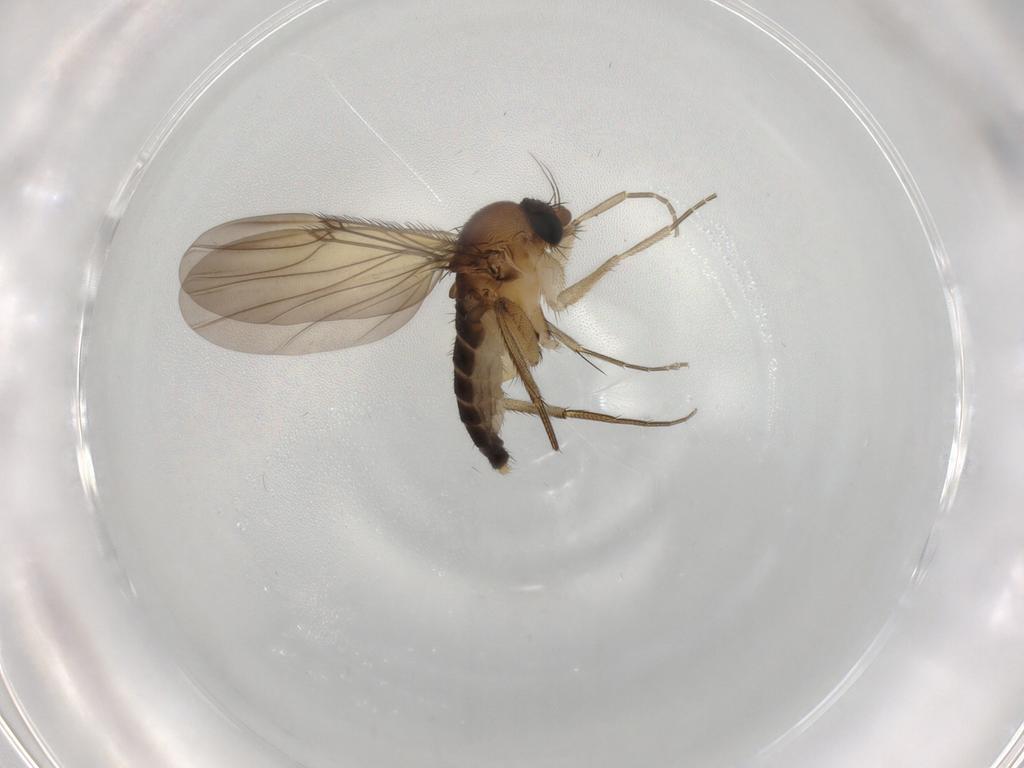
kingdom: Animalia
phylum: Arthropoda
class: Insecta
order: Diptera
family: Phoridae
